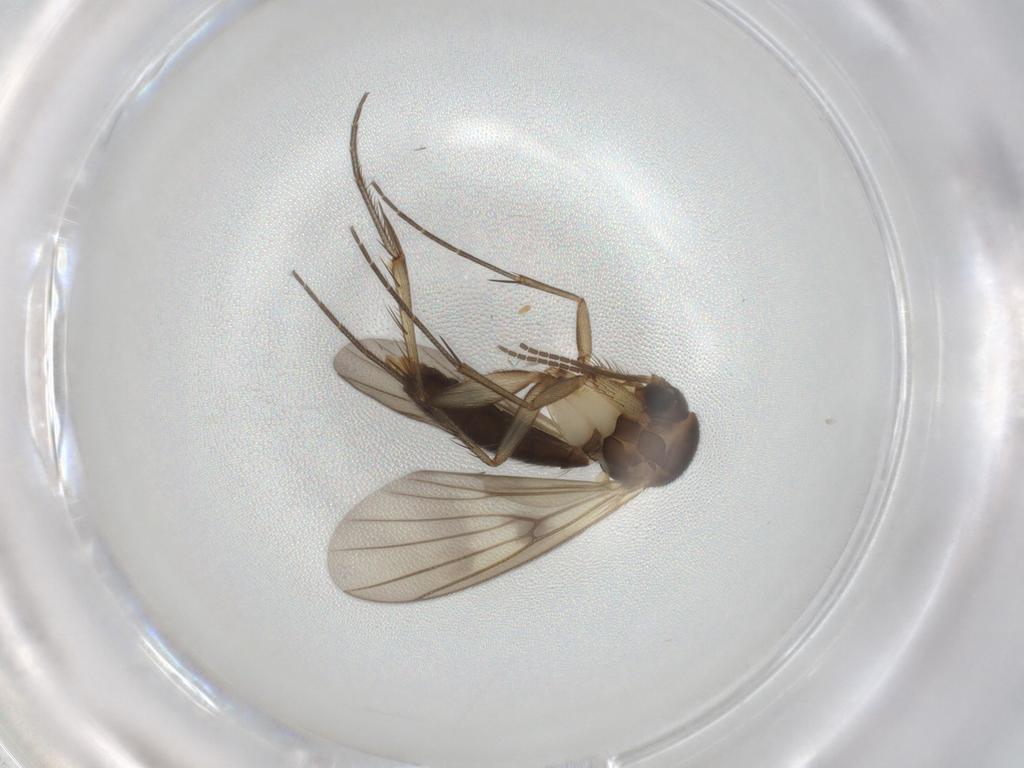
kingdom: Animalia
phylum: Arthropoda
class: Insecta
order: Diptera
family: Mycetophilidae
